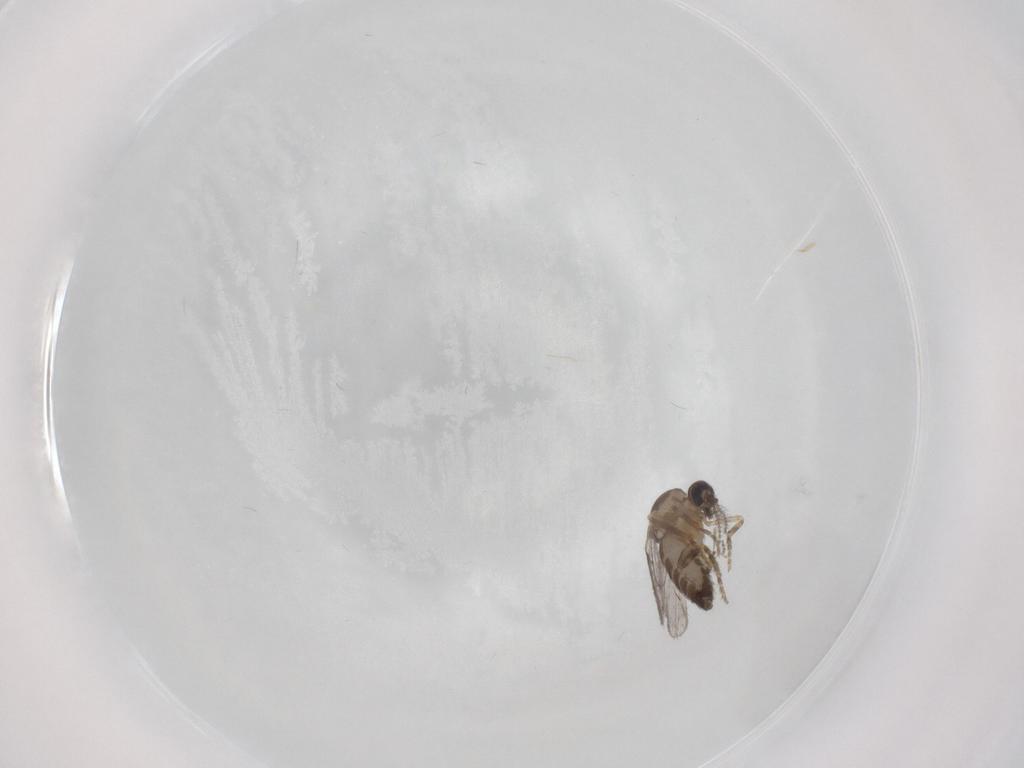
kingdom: Animalia
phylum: Arthropoda
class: Insecta
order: Diptera
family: Ceratopogonidae
